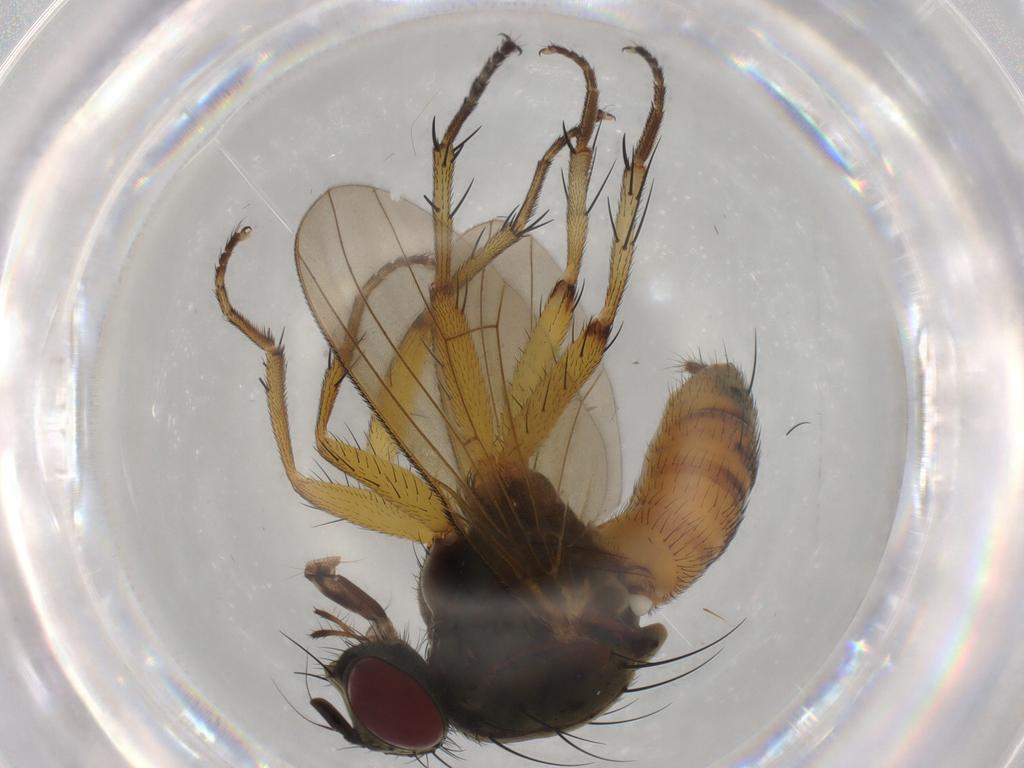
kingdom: Animalia
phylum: Arthropoda
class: Insecta
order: Diptera
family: Muscidae
